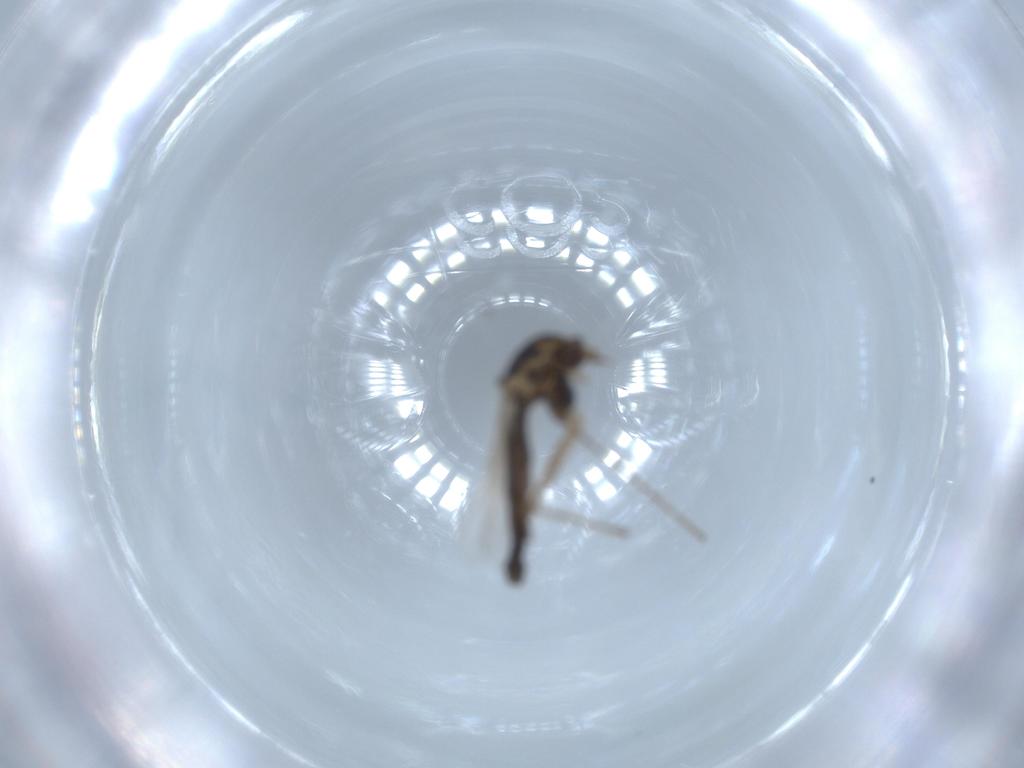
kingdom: Animalia
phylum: Arthropoda
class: Insecta
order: Diptera
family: Chironomidae
